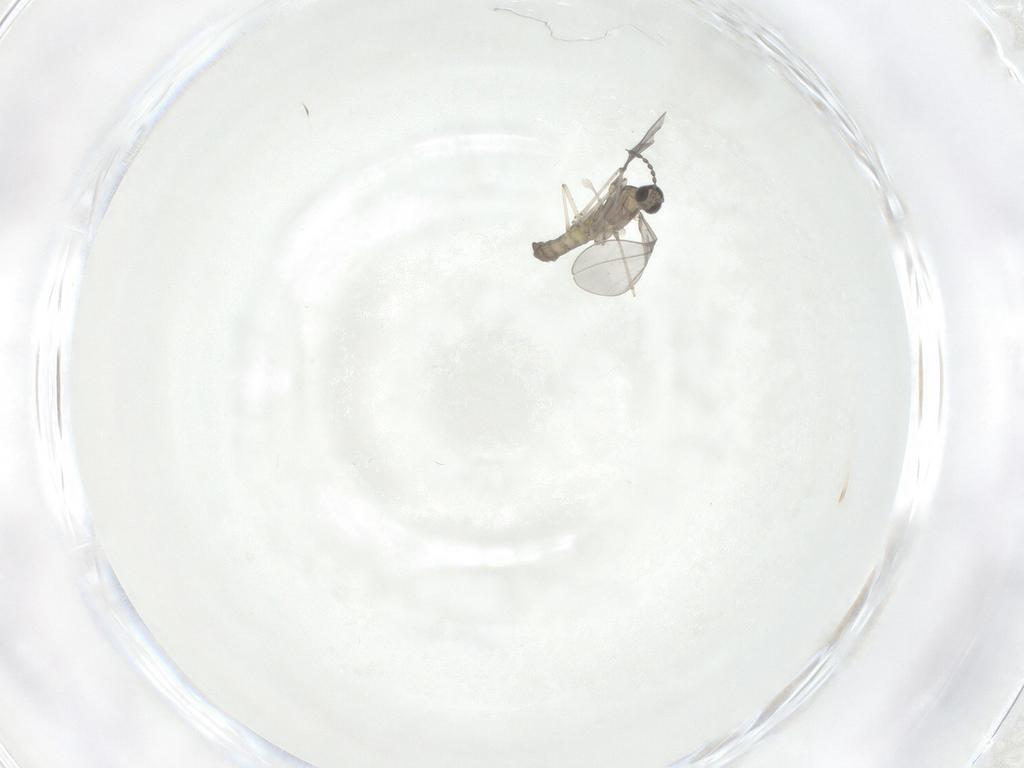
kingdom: Animalia
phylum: Arthropoda
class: Insecta
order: Diptera
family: Cecidomyiidae
